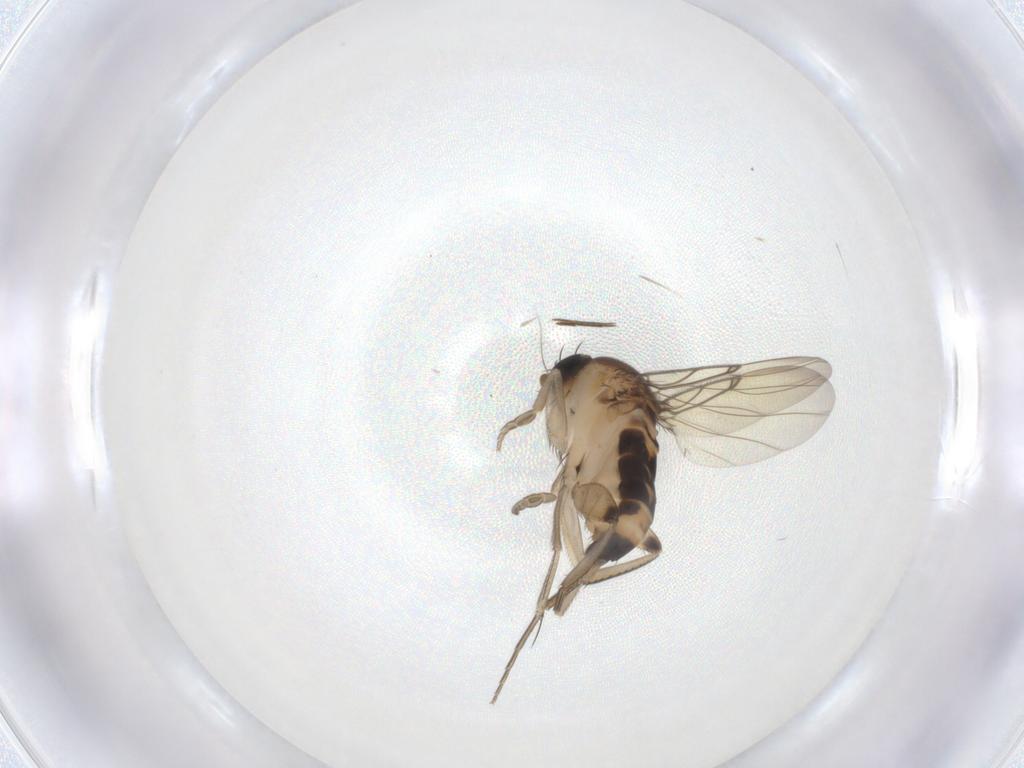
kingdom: Animalia
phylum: Arthropoda
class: Insecta
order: Diptera
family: Phoridae
